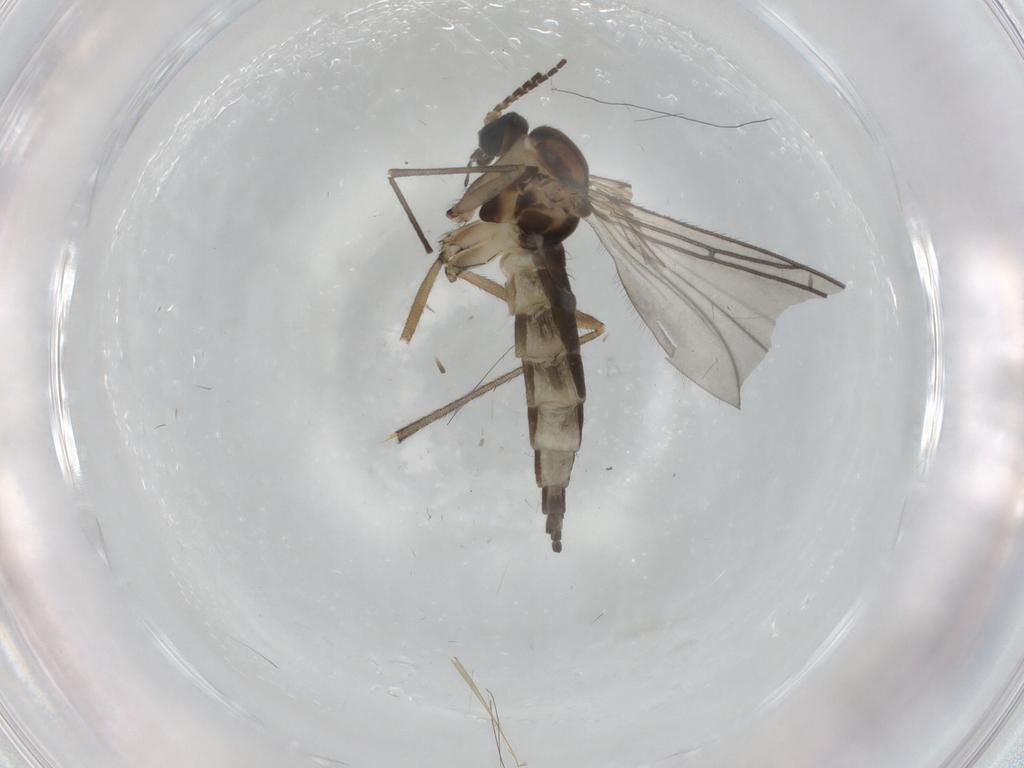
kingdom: Animalia
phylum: Arthropoda
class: Insecta
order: Diptera
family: Sciaridae
